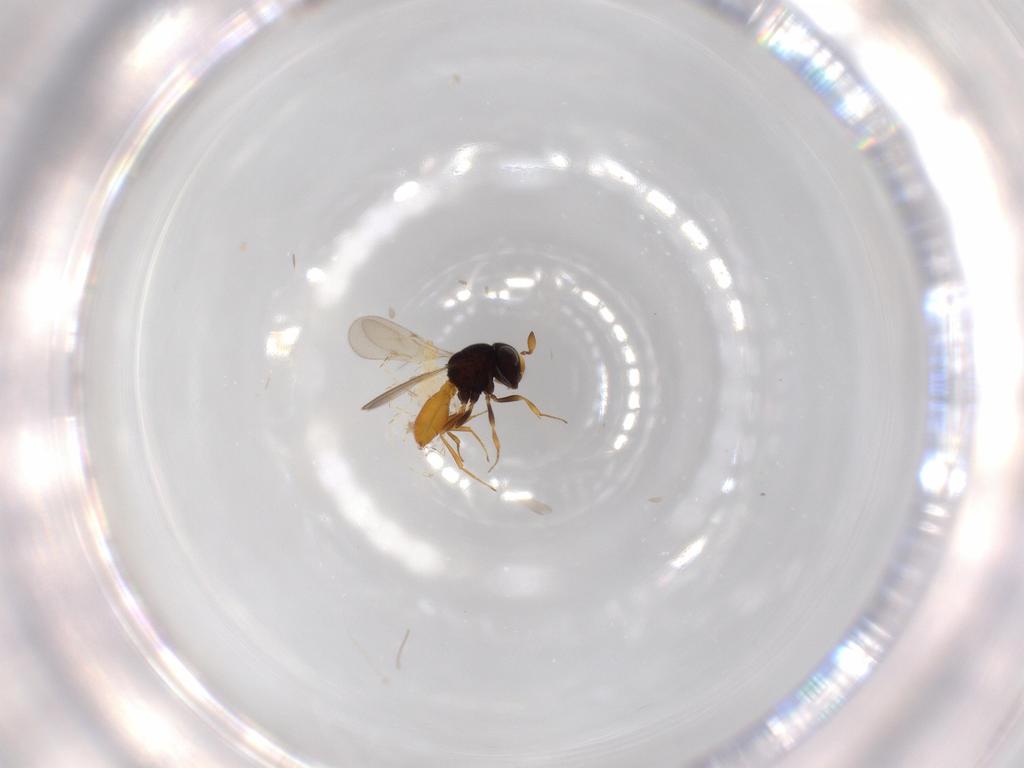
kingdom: Animalia
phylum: Arthropoda
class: Insecta
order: Hymenoptera
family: Scelionidae
